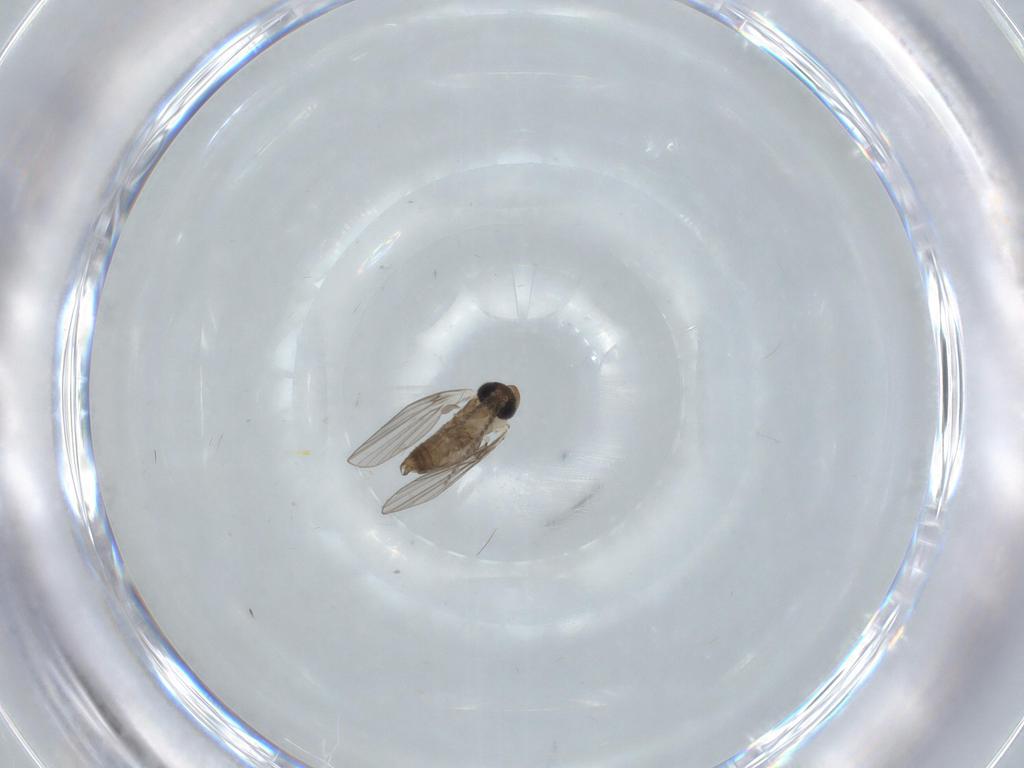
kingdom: Animalia
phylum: Arthropoda
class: Insecta
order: Diptera
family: Psychodidae
